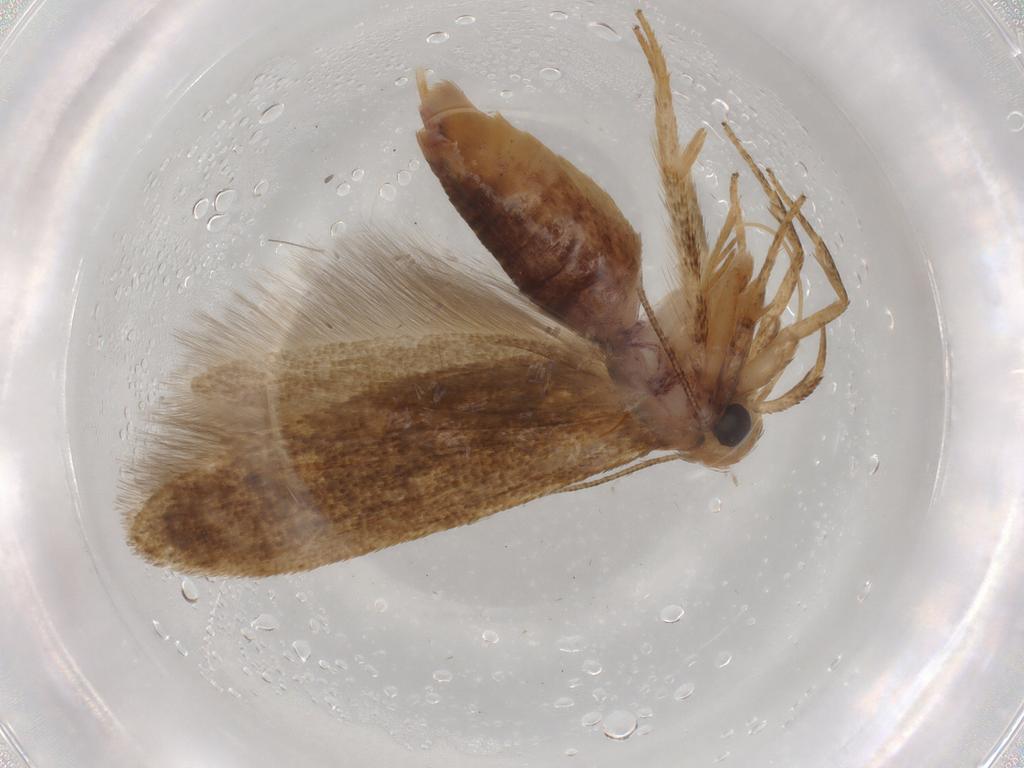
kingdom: Animalia
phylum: Arthropoda
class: Insecta
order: Lepidoptera
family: Blastobasidae
